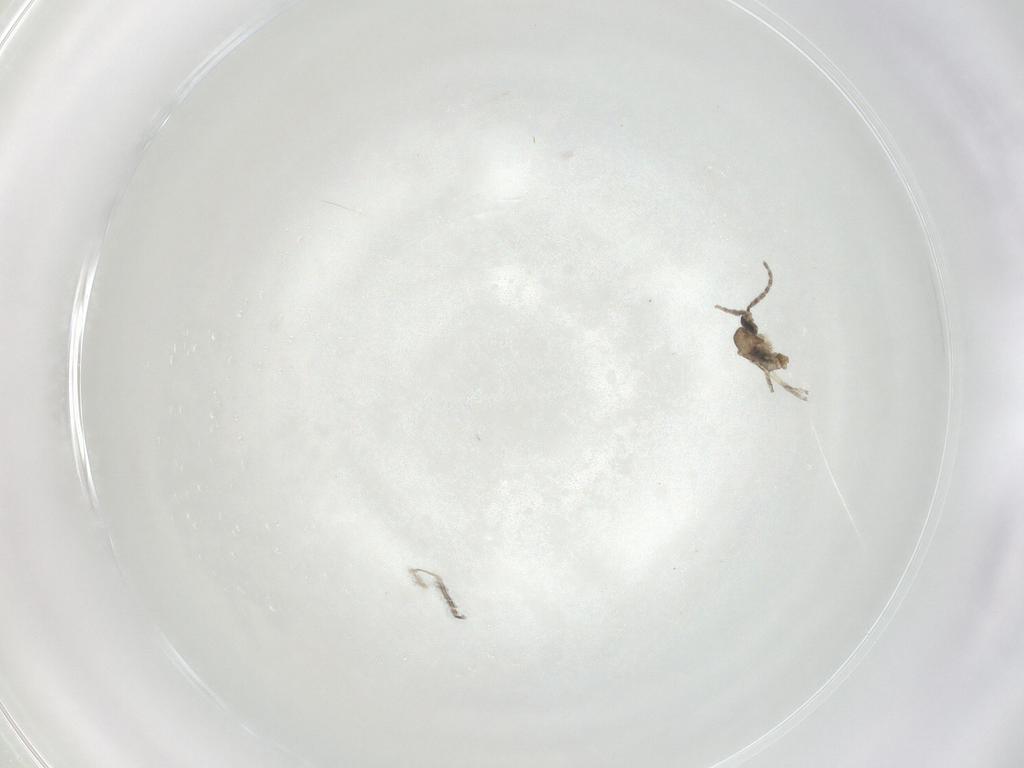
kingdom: Animalia
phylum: Arthropoda
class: Insecta
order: Diptera
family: Cecidomyiidae
